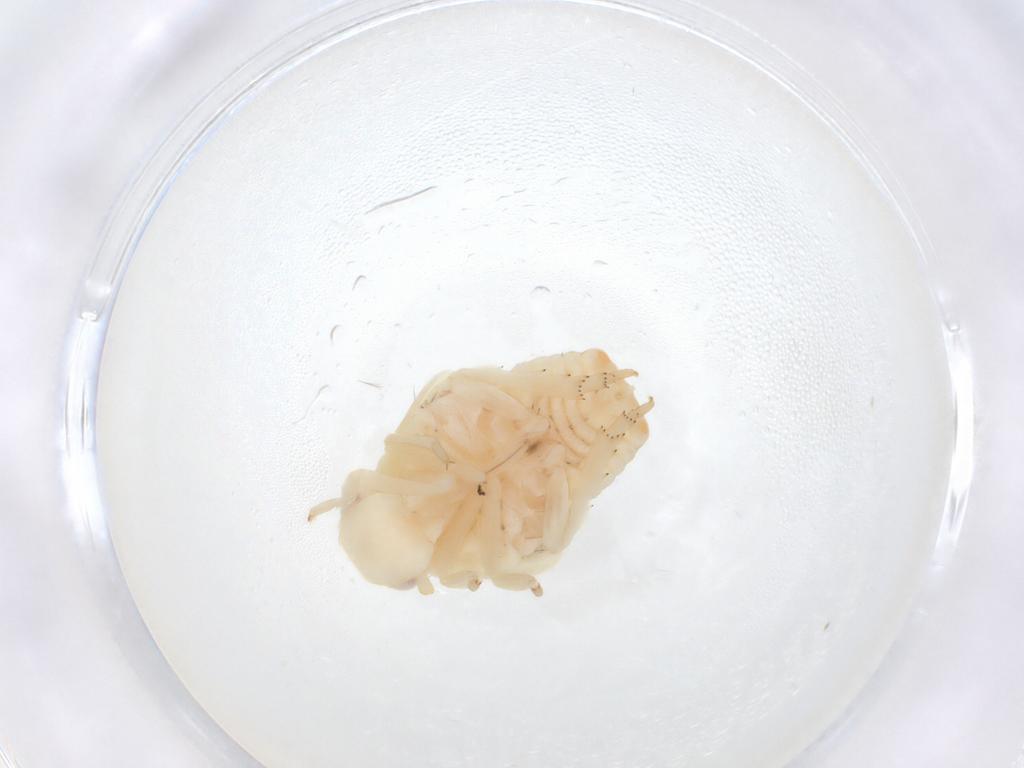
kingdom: Animalia
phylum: Arthropoda
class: Insecta
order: Hemiptera
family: Flatidae
